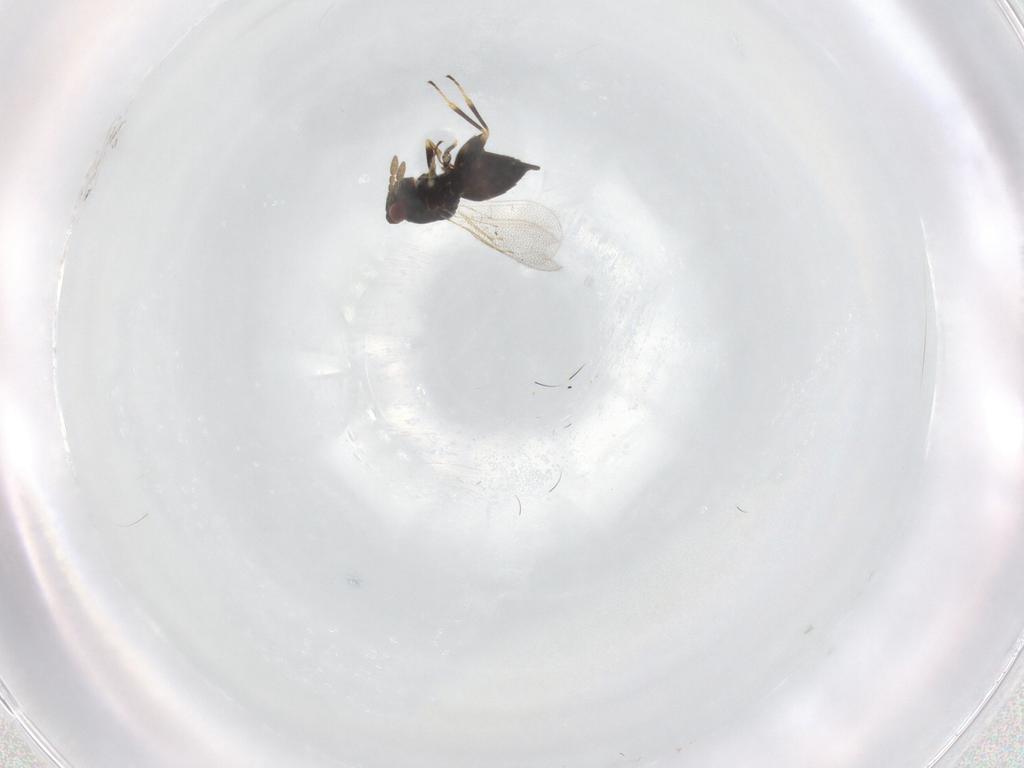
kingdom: Animalia
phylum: Arthropoda
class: Insecta
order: Hymenoptera
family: Eulophidae
